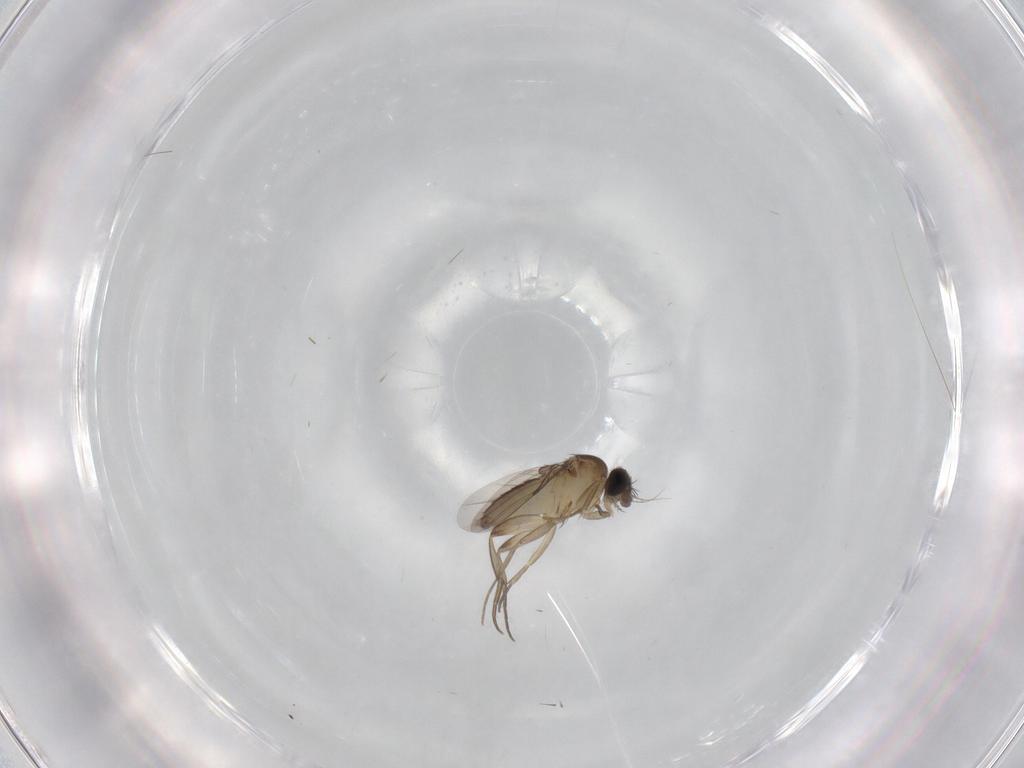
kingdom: Animalia
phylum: Arthropoda
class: Insecta
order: Diptera
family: Phoridae
